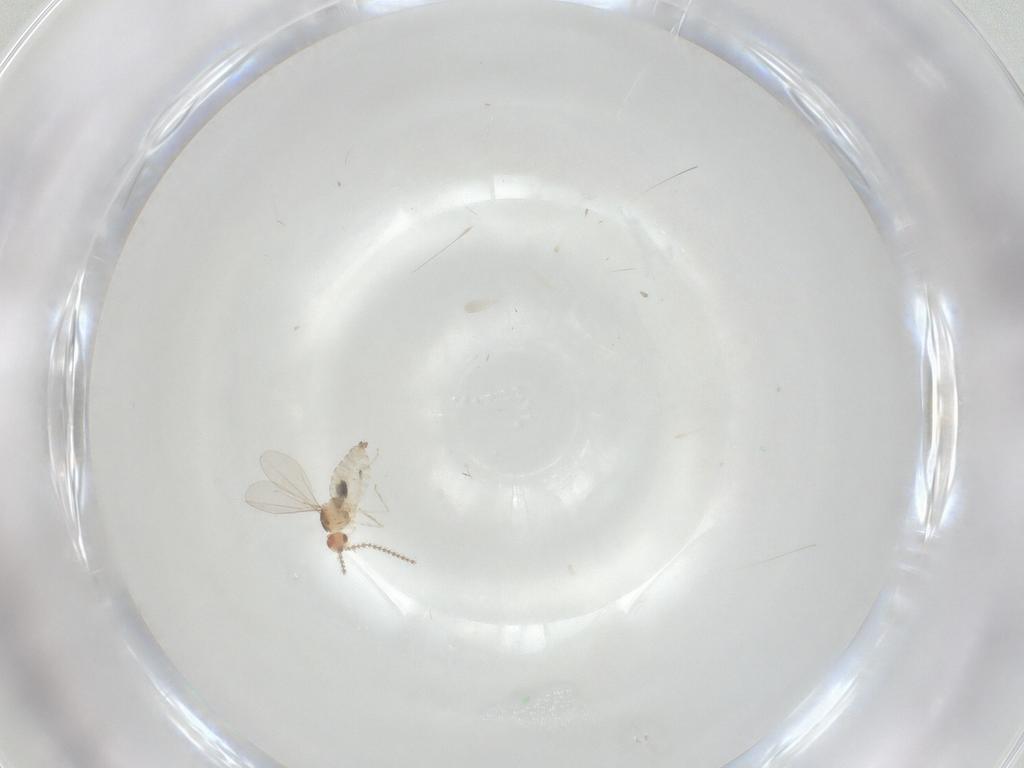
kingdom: Animalia
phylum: Arthropoda
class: Insecta
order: Diptera
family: Cecidomyiidae
